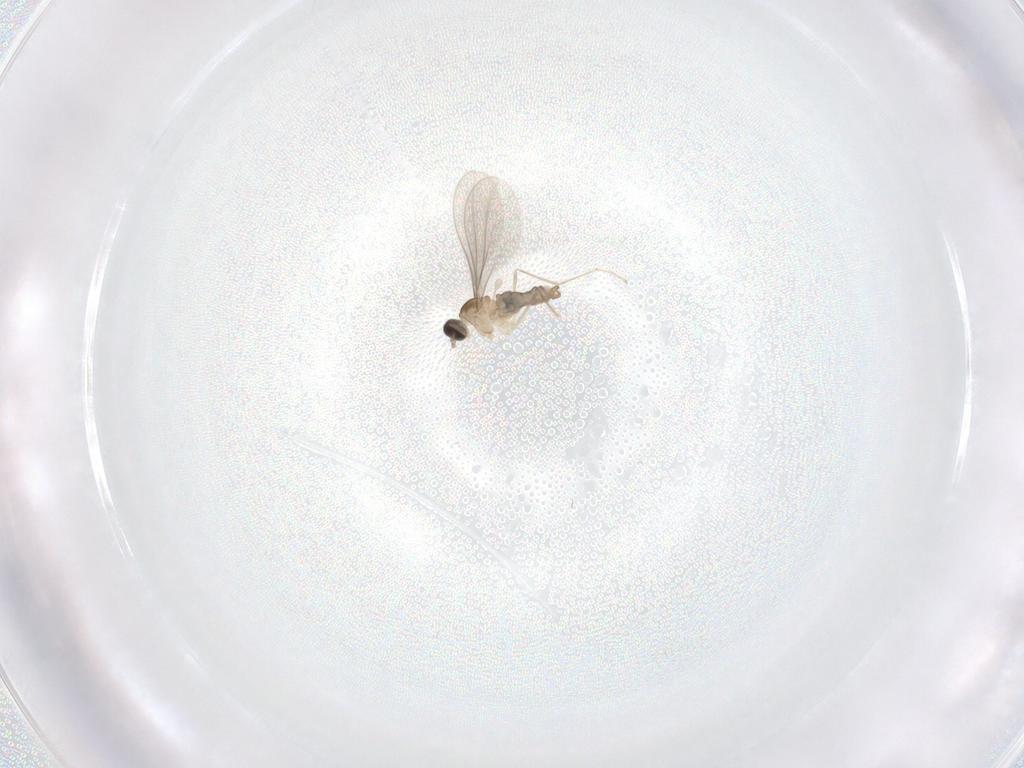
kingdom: Animalia
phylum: Arthropoda
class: Insecta
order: Diptera
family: Cecidomyiidae
